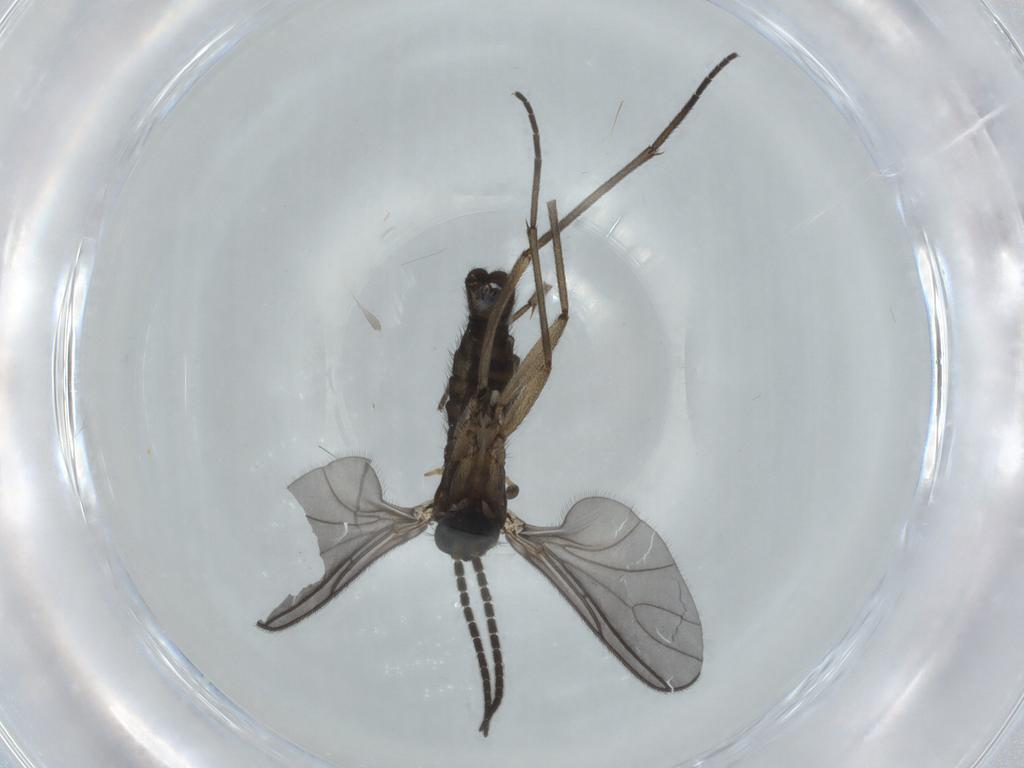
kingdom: Animalia
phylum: Arthropoda
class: Insecta
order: Diptera
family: Sciaridae
